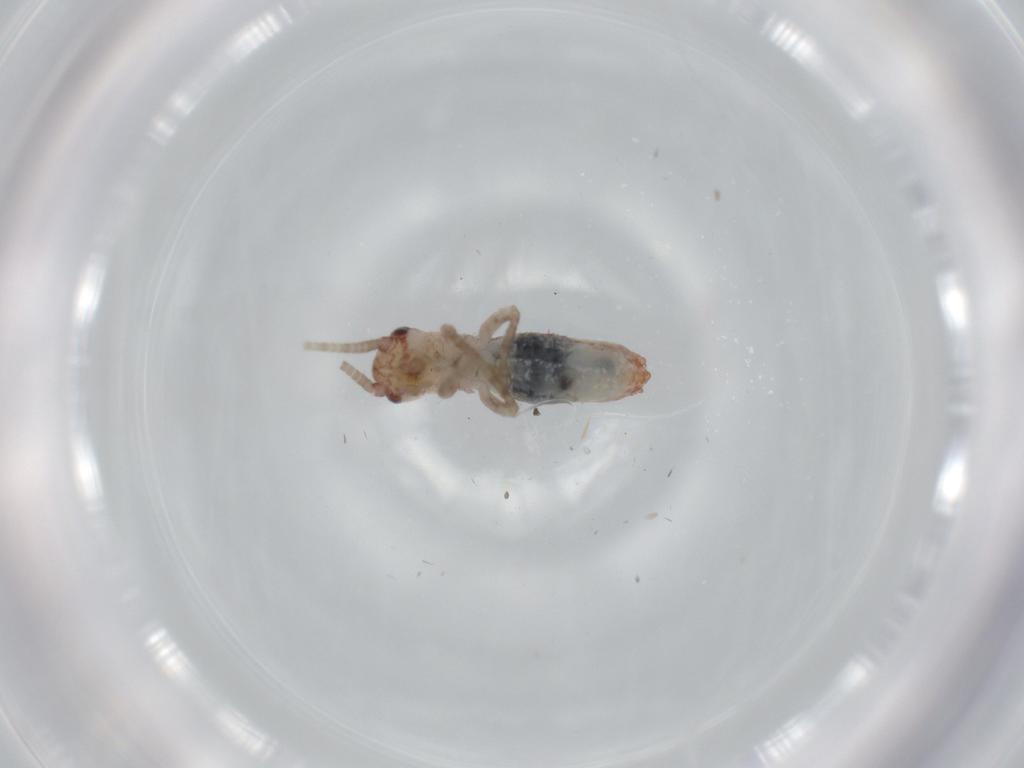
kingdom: Animalia
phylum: Arthropoda
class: Insecta
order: Orthoptera
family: Mogoplistidae
